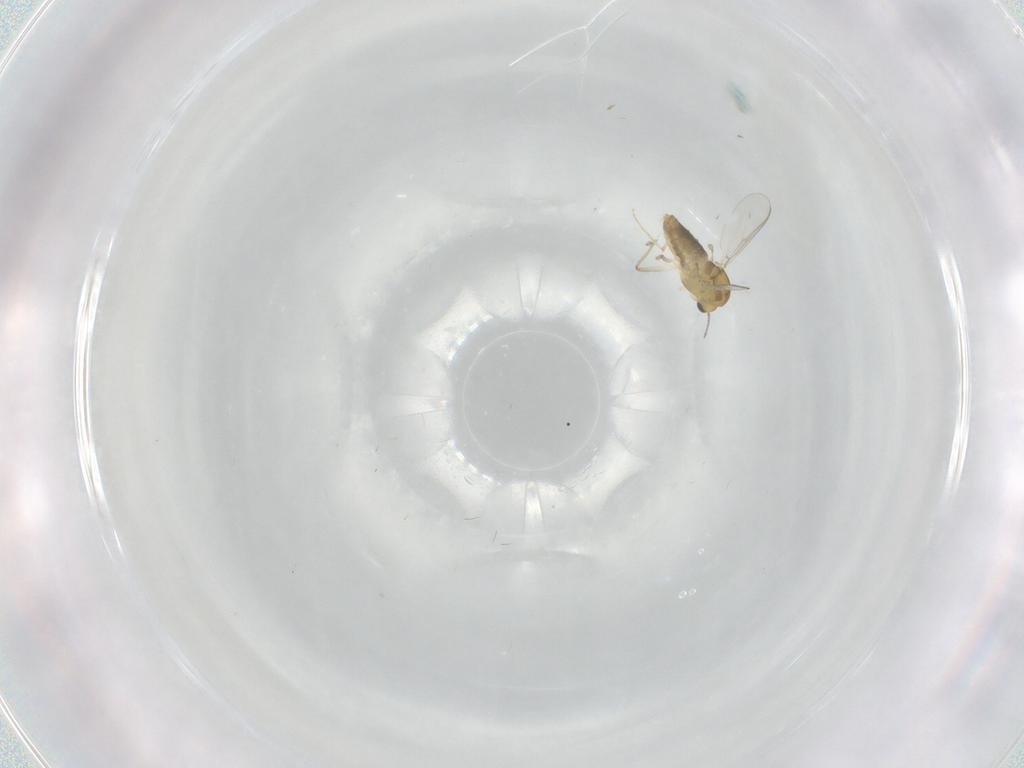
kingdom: Animalia
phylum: Arthropoda
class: Insecta
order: Diptera
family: Chironomidae
